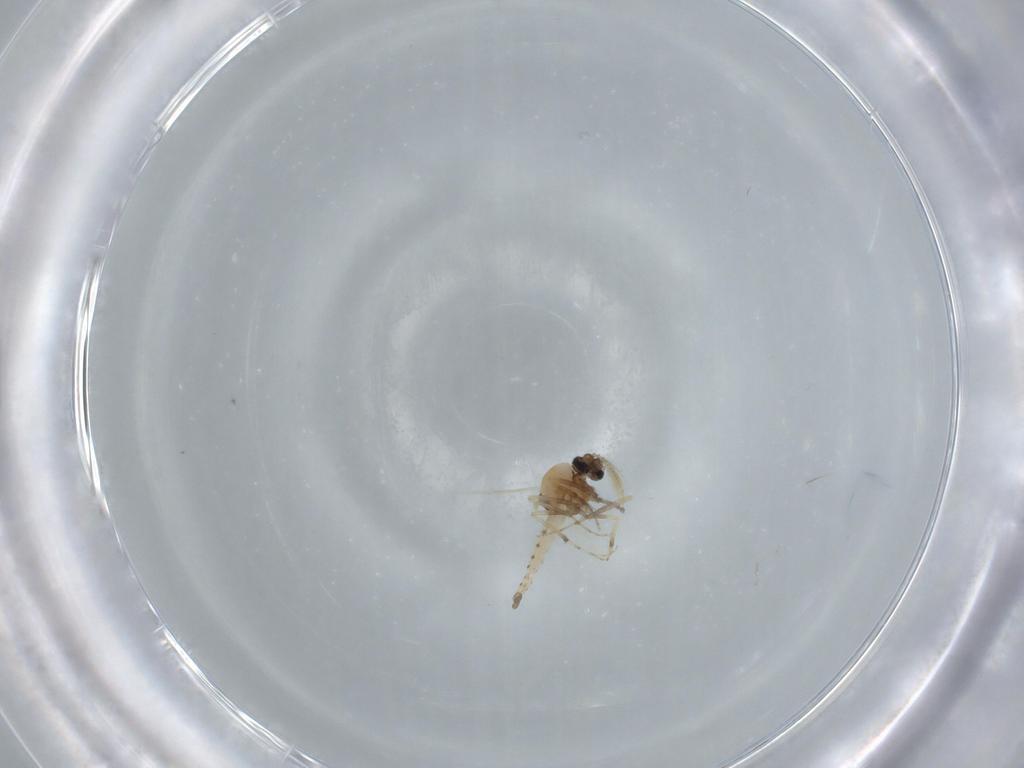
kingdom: Animalia
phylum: Arthropoda
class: Insecta
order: Diptera
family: Ceratopogonidae
